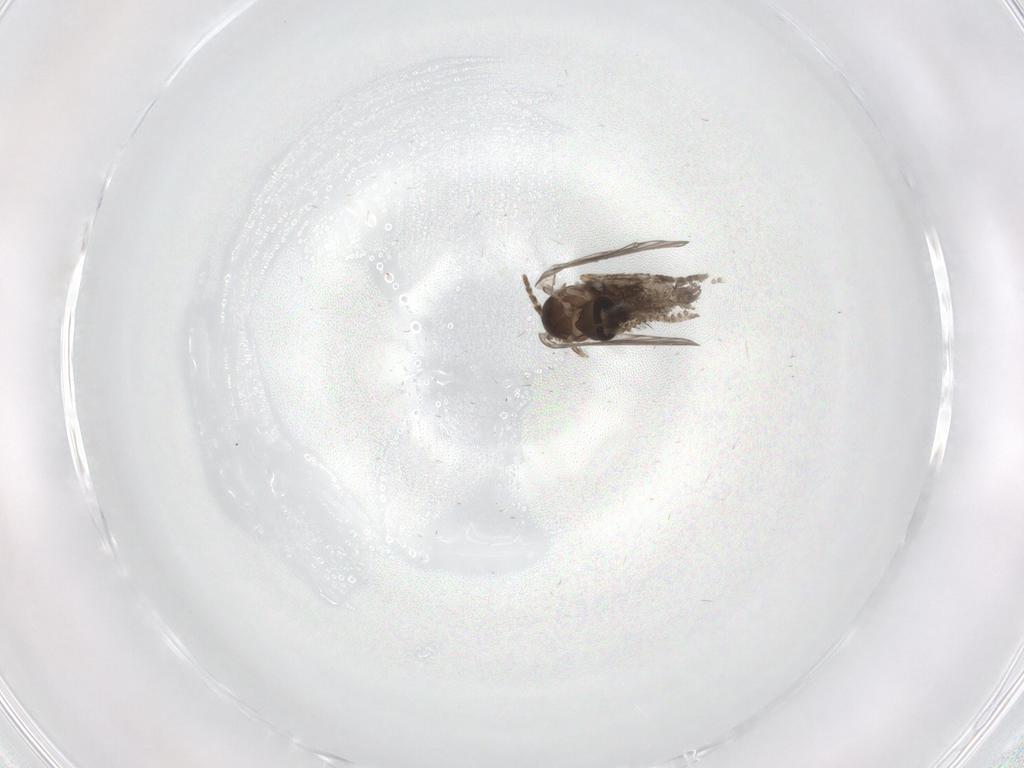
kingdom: Animalia
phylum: Arthropoda
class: Insecta
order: Diptera
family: Psychodidae
